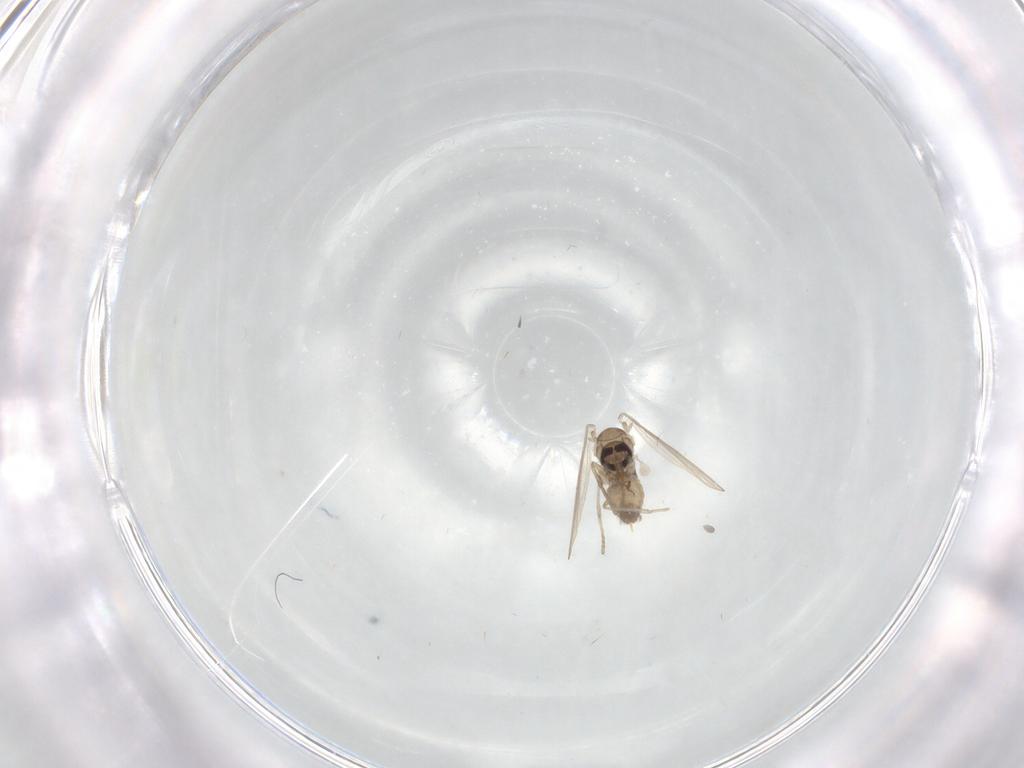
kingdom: Animalia
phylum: Arthropoda
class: Insecta
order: Diptera
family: Phoridae
